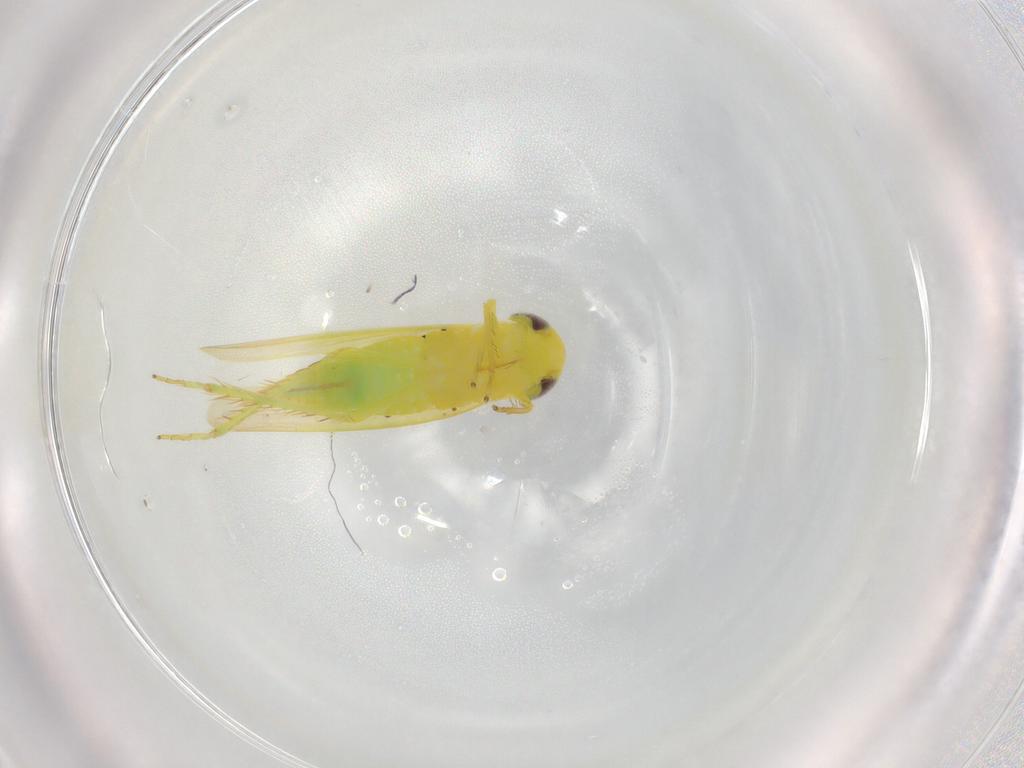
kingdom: Animalia
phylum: Arthropoda
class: Insecta
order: Hemiptera
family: Cicadellidae
